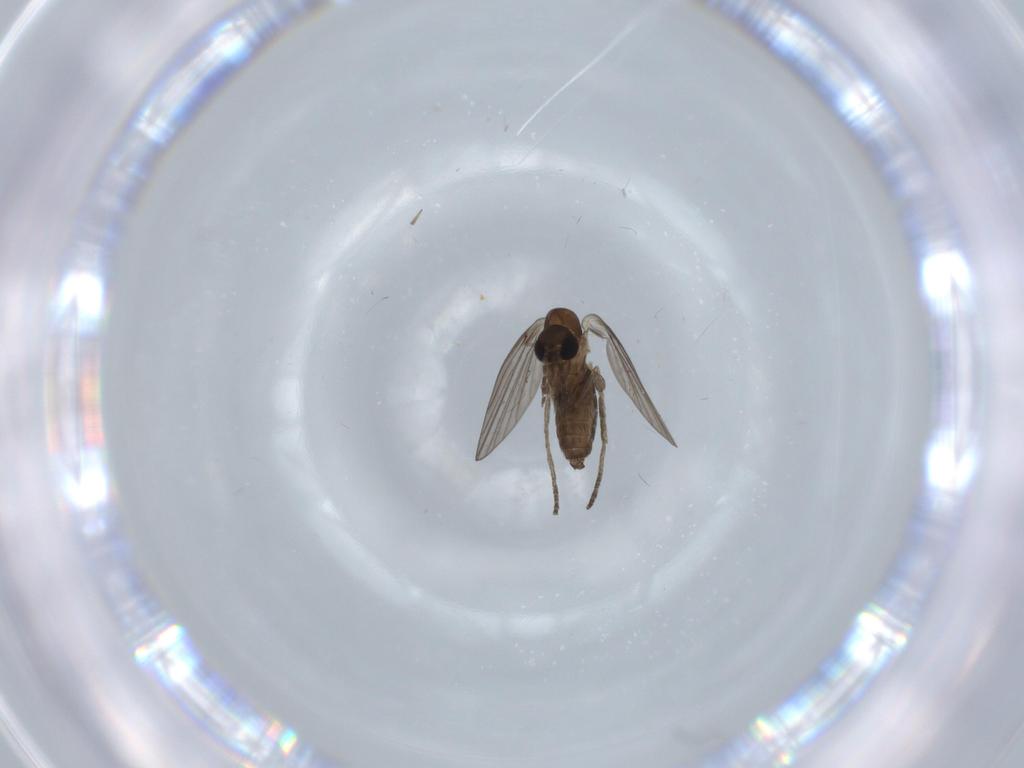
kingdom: Animalia
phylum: Arthropoda
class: Insecta
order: Diptera
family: Psychodidae
